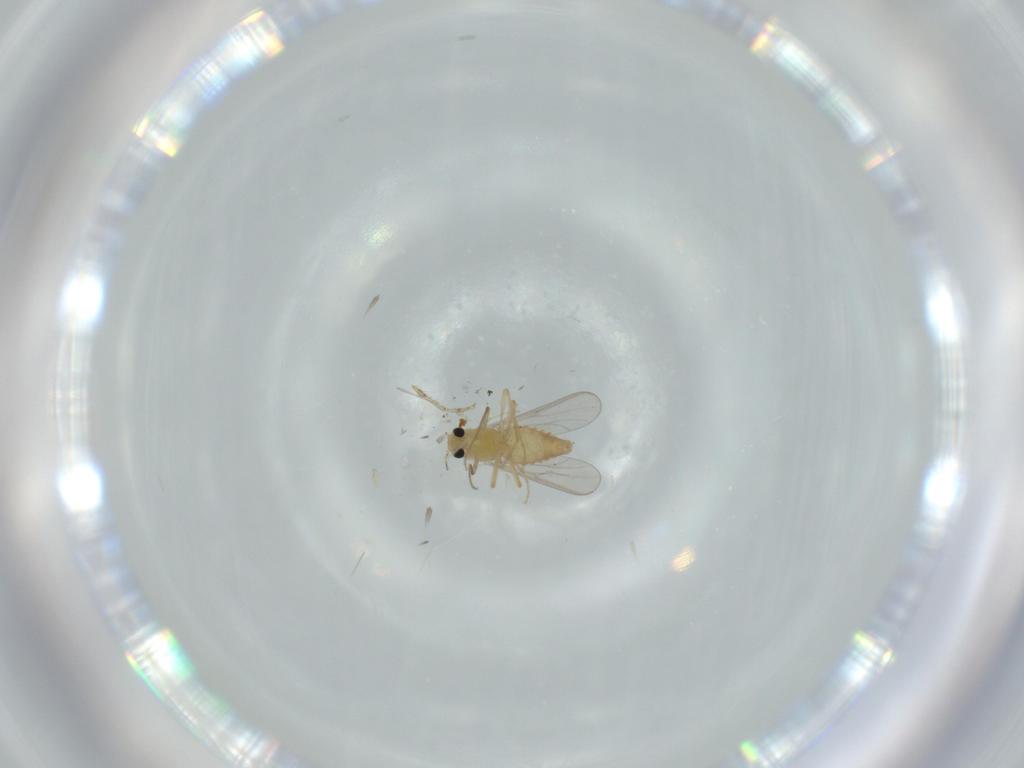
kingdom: Animalia
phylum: Arthropoda
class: Insecta
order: Diptera
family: Chironomidae
